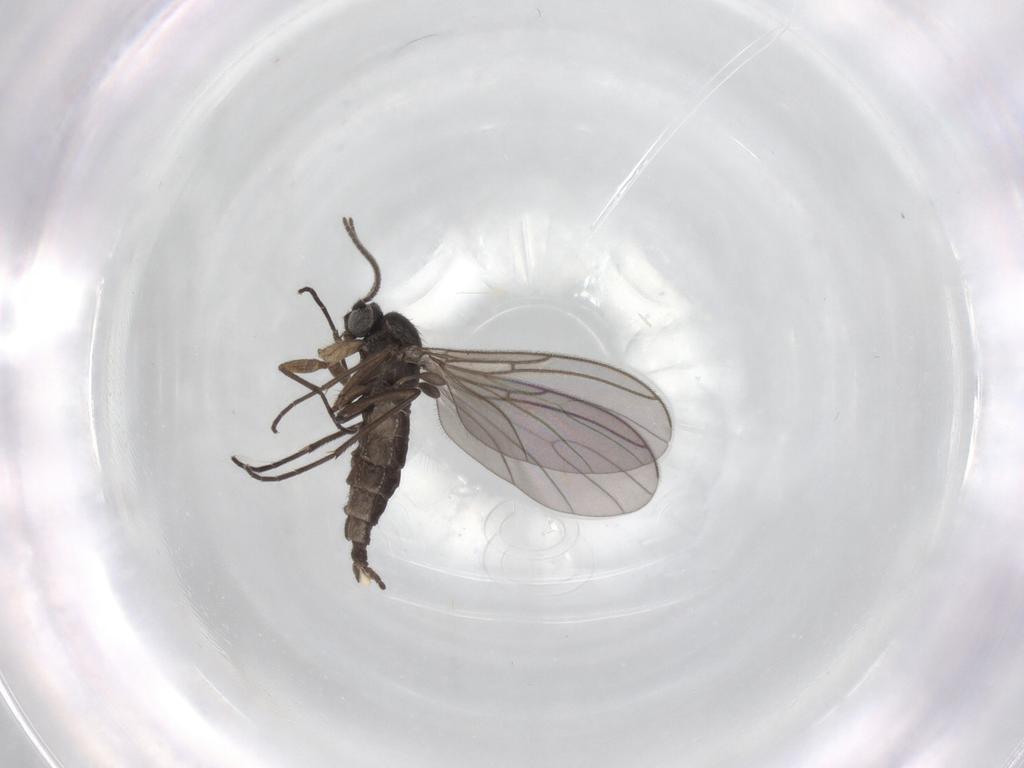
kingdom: Animalia
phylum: Arthropoda
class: Insecta
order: Diptera
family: Sciaridae
